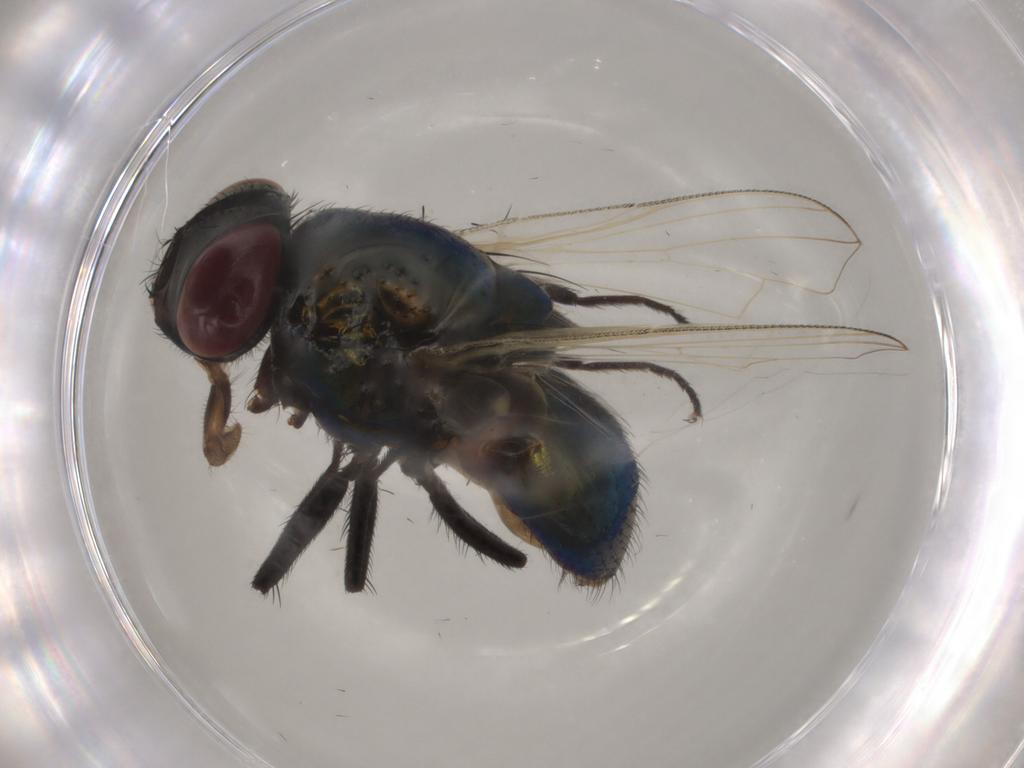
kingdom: Animalia
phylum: Arthropoda
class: Insecta
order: Diptera
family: Muscidae
